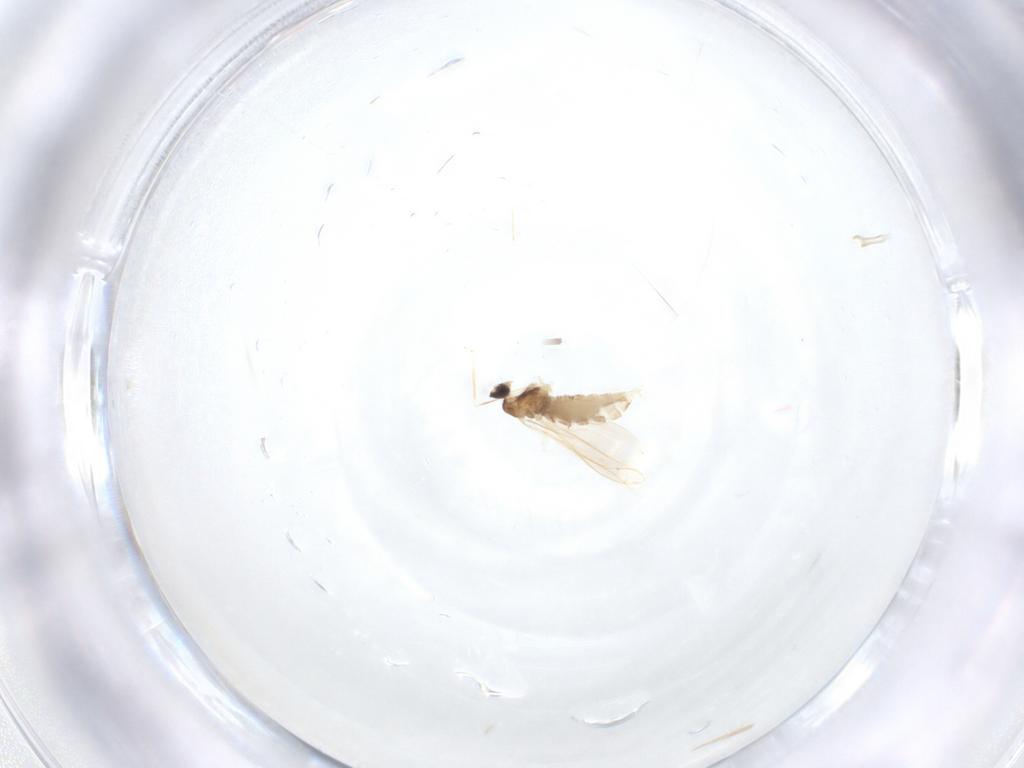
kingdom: Animalia
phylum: Arthropoda
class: Insecta
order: Diptera
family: Cecidomyiidae
